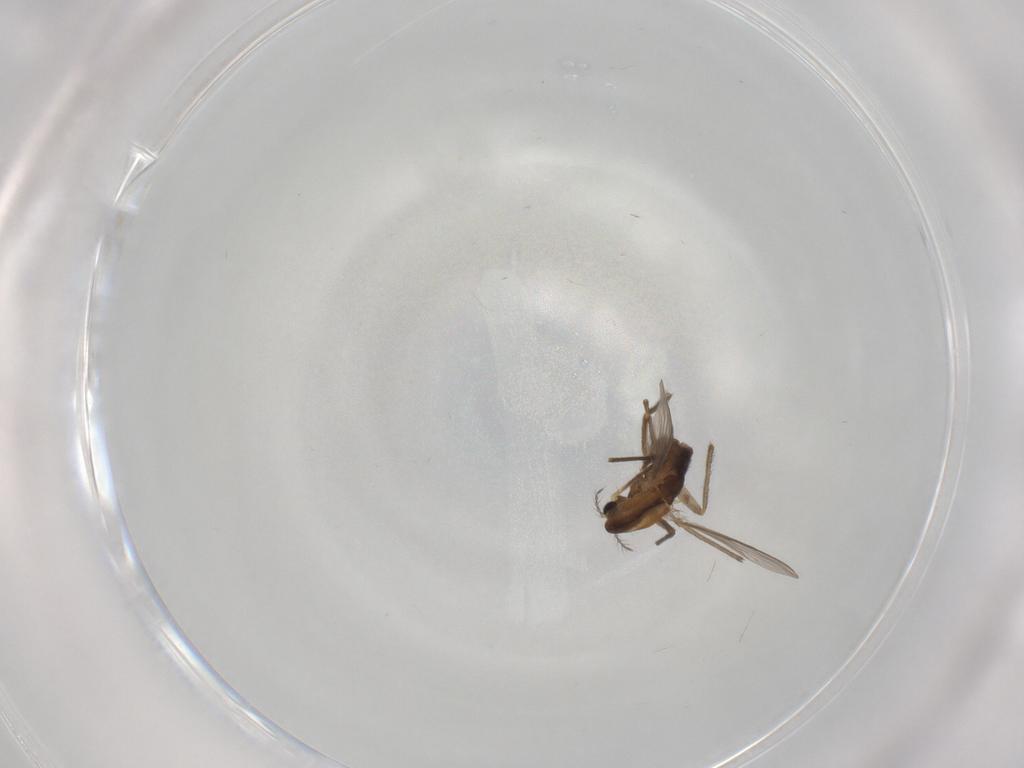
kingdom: Animalia
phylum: Arthropoda
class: Insecta
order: Diptera
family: Chironomidae
